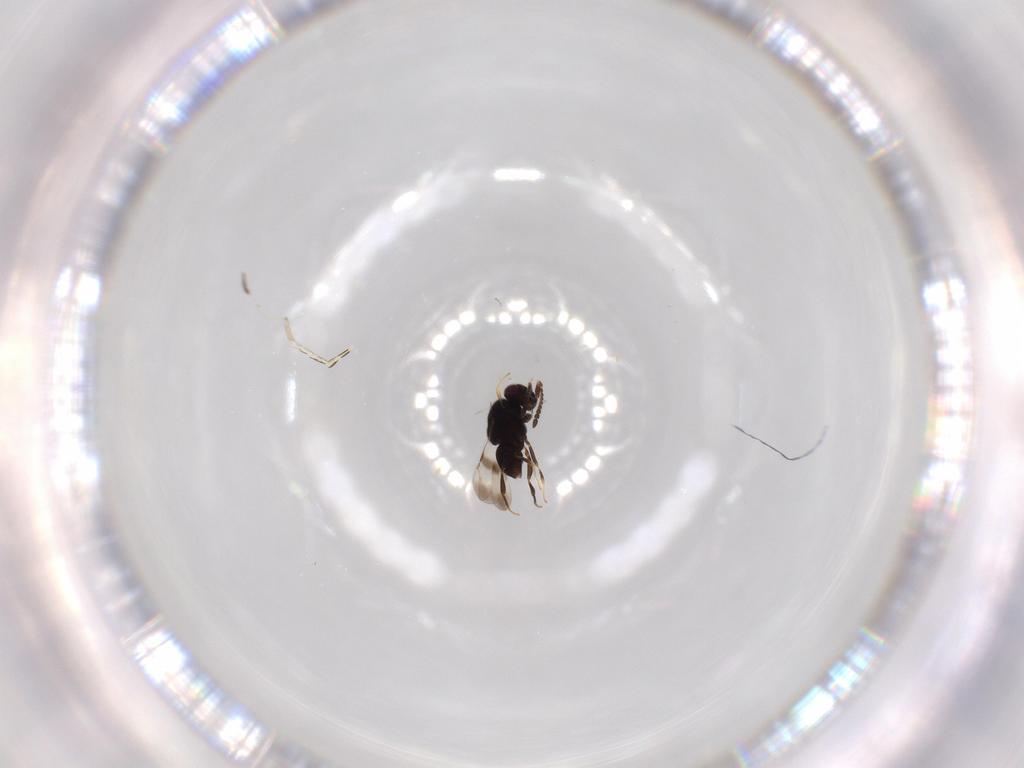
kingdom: Animalia
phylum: Arthropoda
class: Insecta
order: Hymenoptera
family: Ceraphronidae
